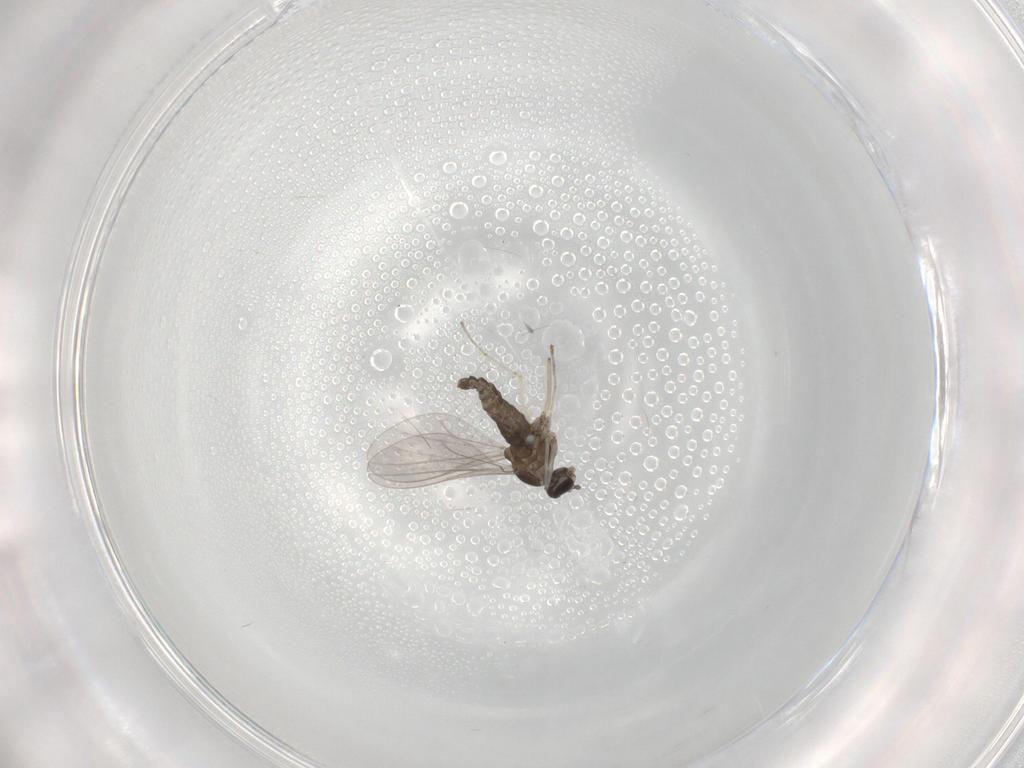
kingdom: Animalia
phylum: Arthropoda
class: Insecta
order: Diptera
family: Cecidomyiidae
